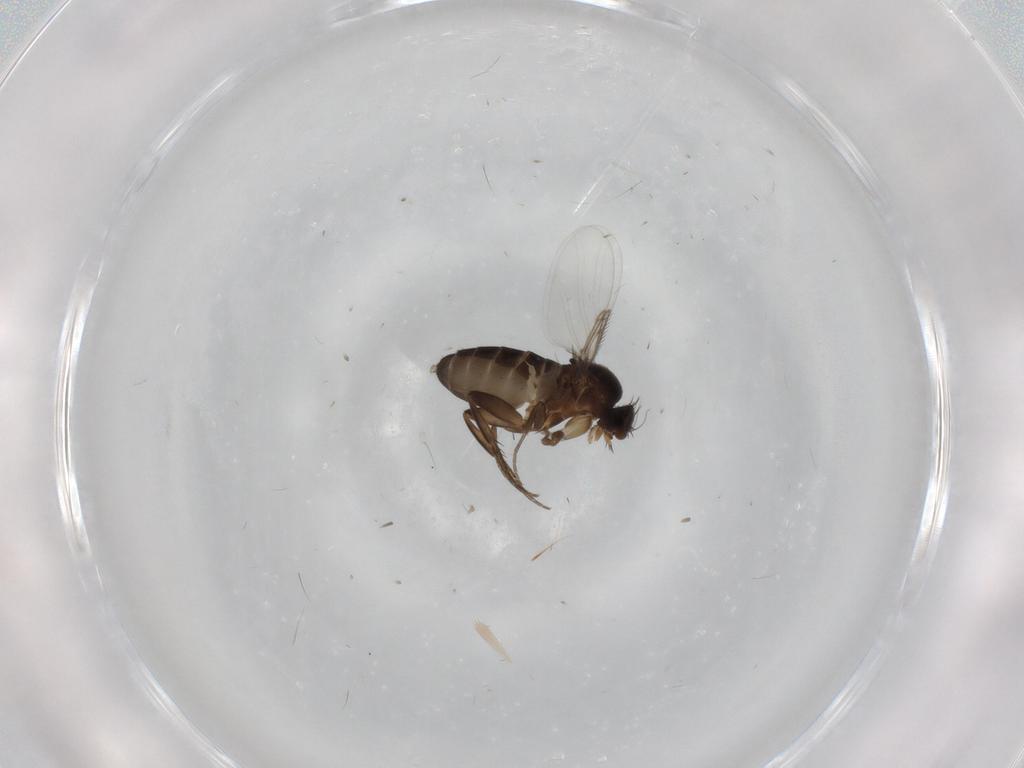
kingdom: Animalia
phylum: Arthropoda
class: Insecta
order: Diptera
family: Phoridae
